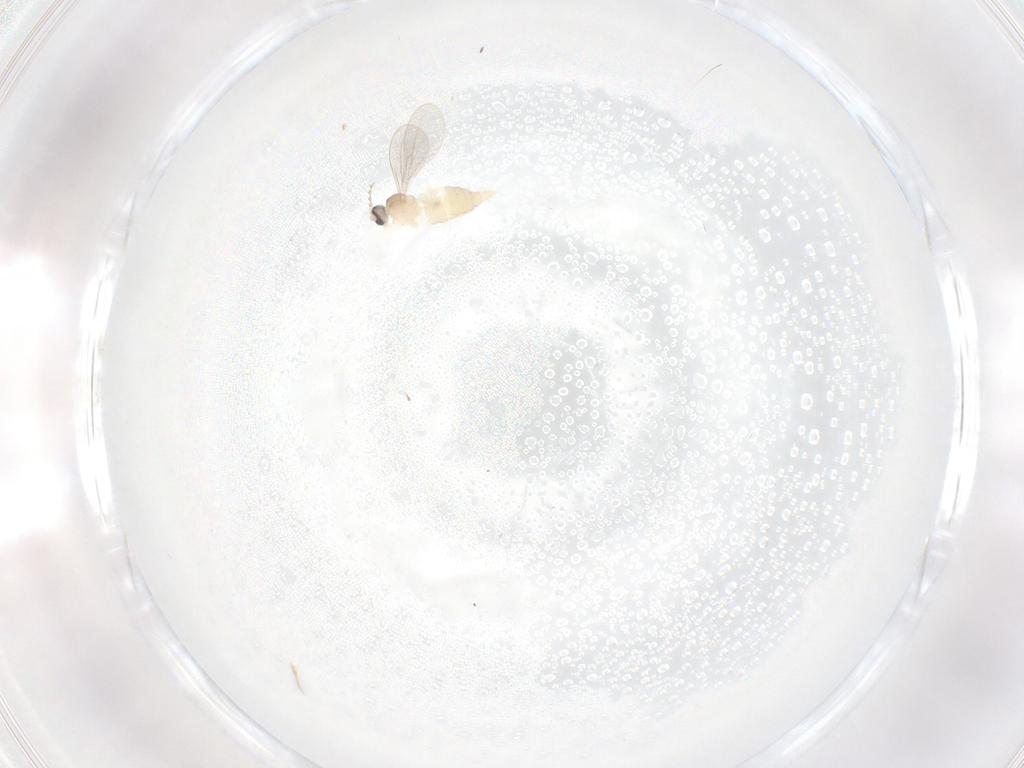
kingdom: Animalia
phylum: Arthropoda
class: Insecta
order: Diptera
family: Cecidomyiidae
